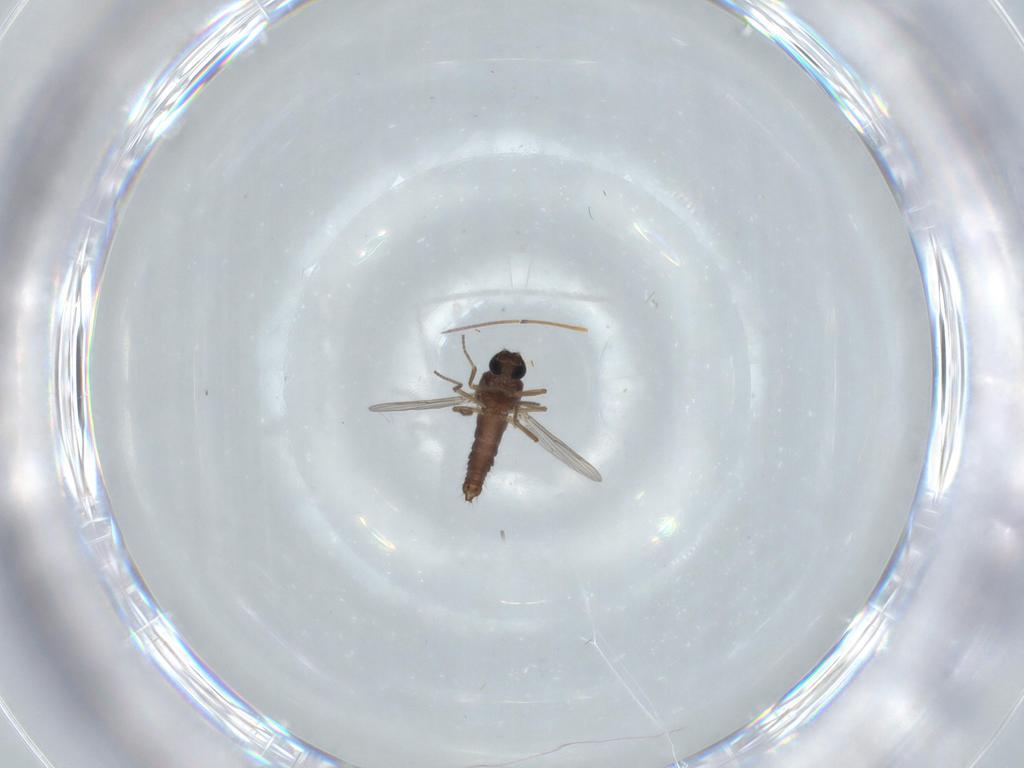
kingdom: Animalia
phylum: Arthropoda
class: Insecta
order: Diptera
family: Ceratopogonidae
